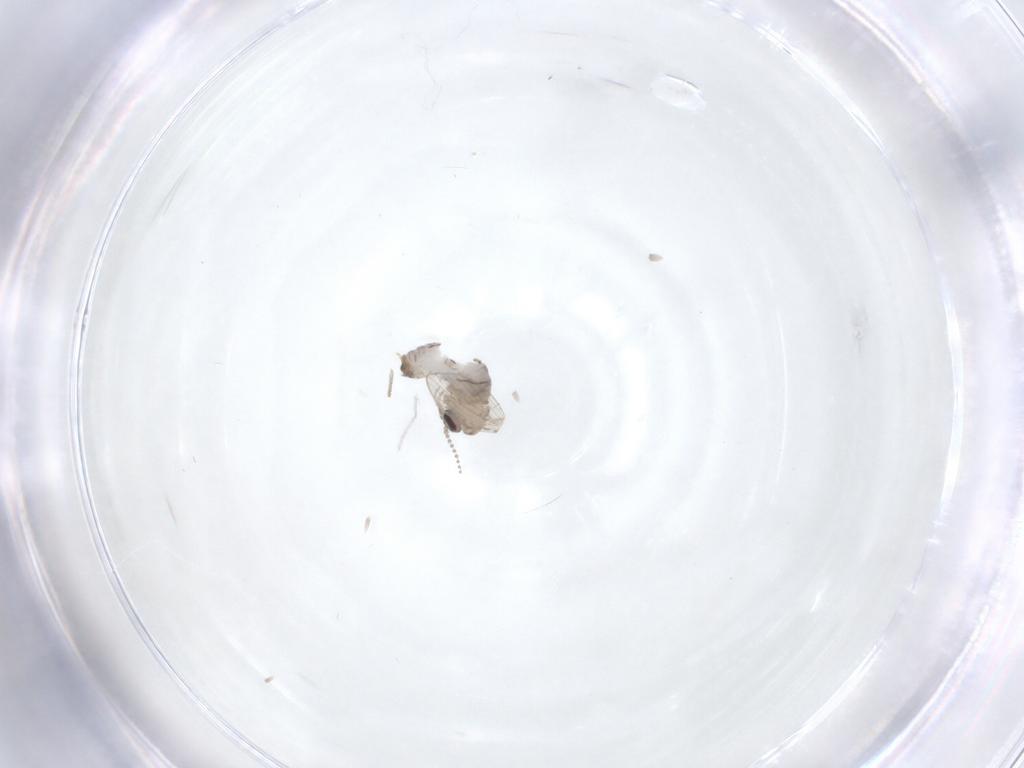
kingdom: Animalia
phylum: Arthropoda
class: Insecta
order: Diptera
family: Psychodidae
